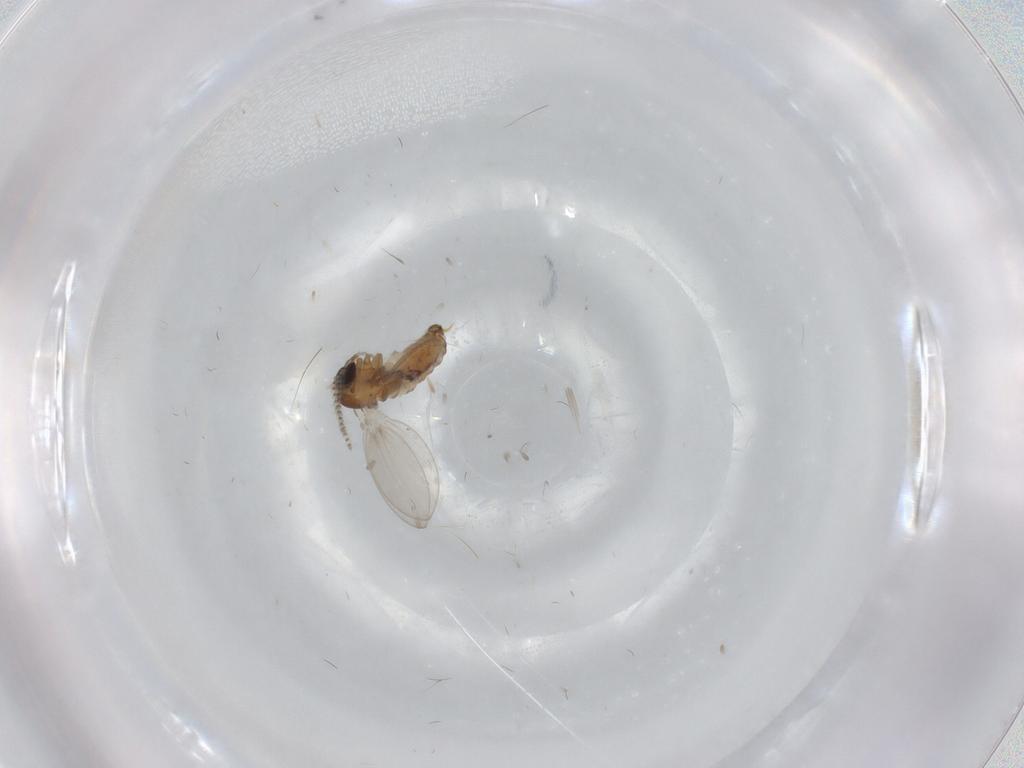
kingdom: Animalia
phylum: Arthropoda
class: Insecta
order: Diptera
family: Psychodidae
